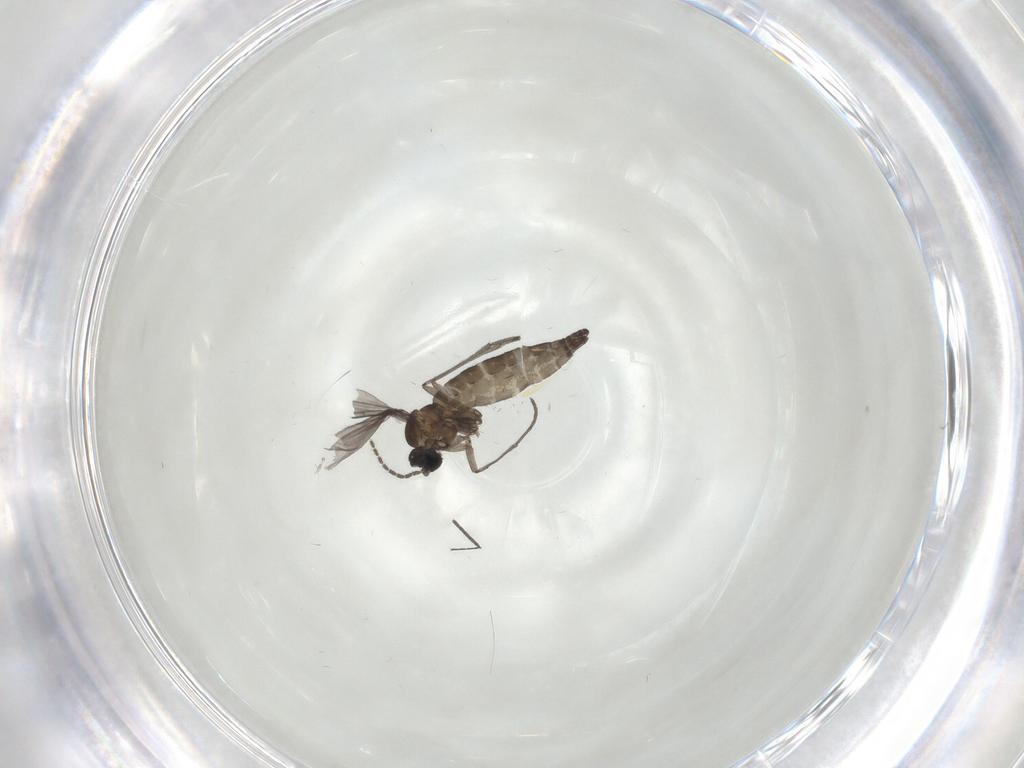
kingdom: Animalia
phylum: Arthropoda
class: Insecta
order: Diptera
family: Sciaridae
